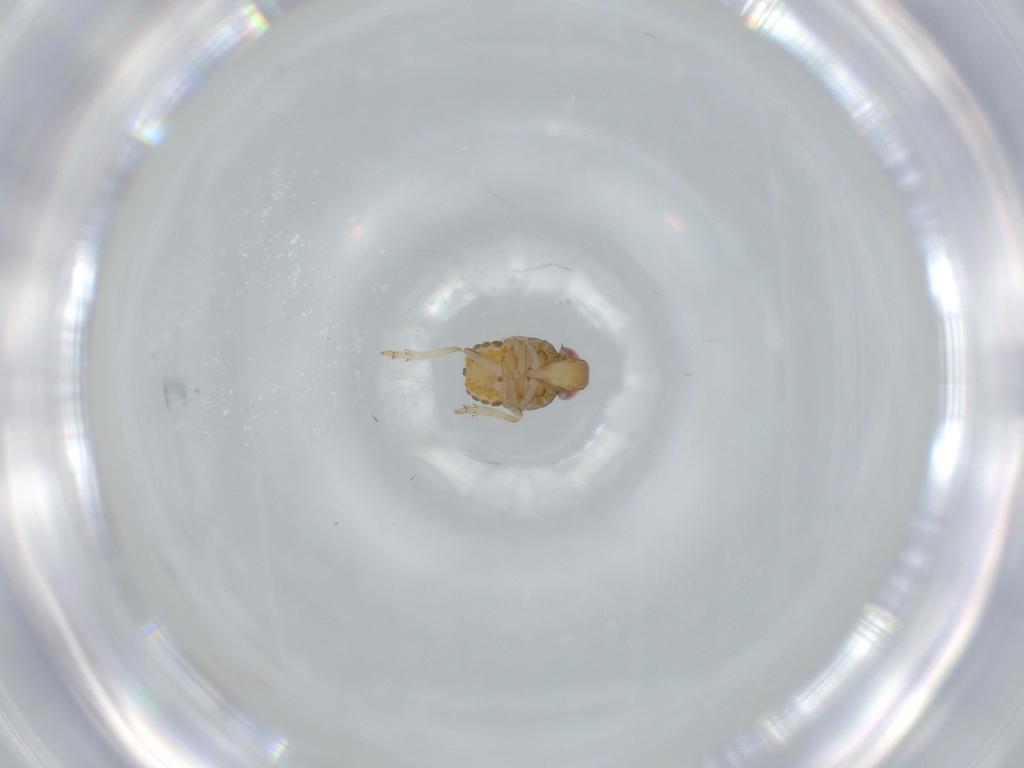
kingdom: Animalia
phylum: Arthropoda
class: Insecta
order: Hemiptera
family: Issidae
